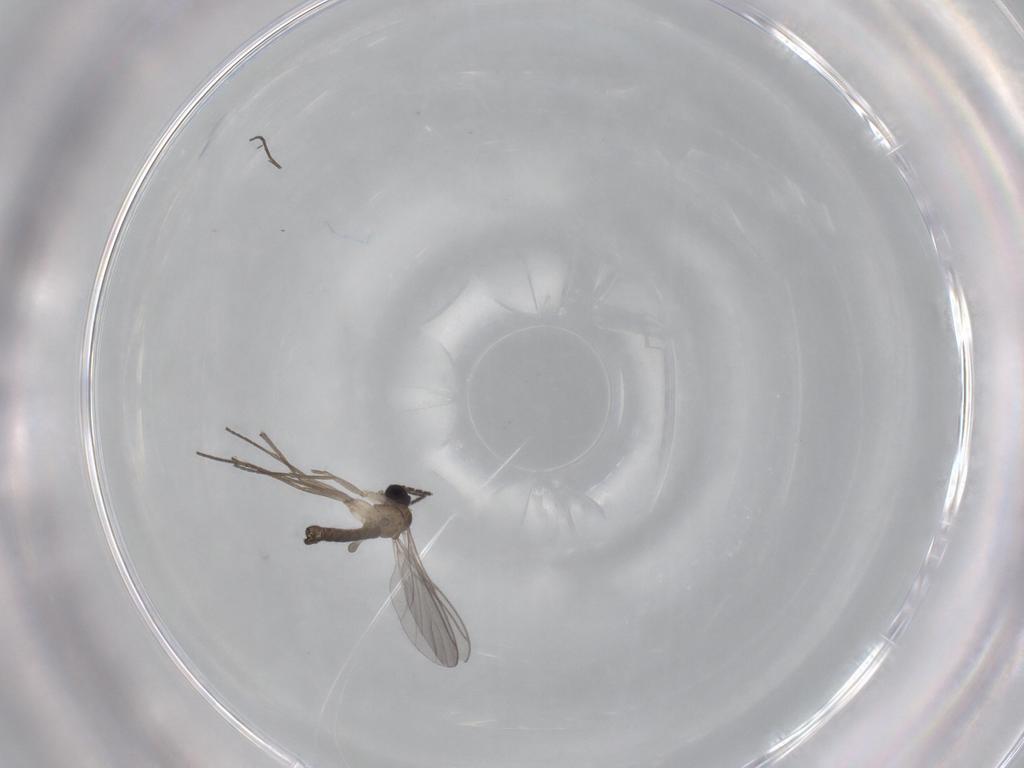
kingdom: Animalia
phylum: Arthropoda
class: Insecta
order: Diptera
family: Sciaridae
